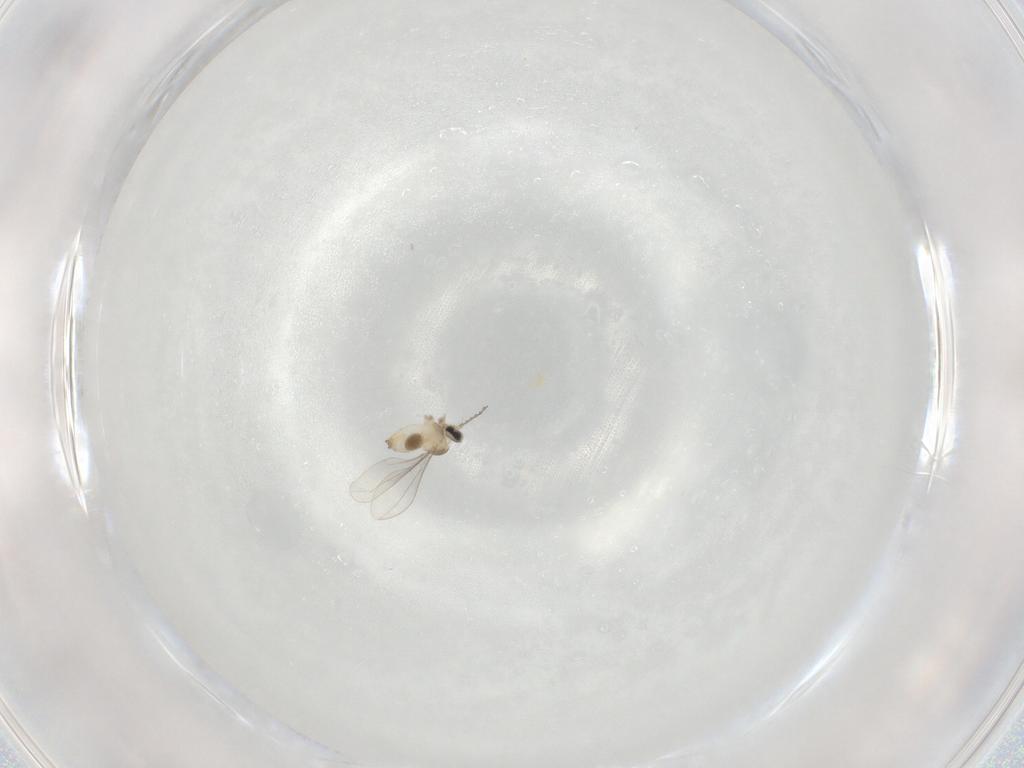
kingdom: Animalia
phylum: Arthropoda
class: Insecta
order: Diptera
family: Cecidomyiidae
